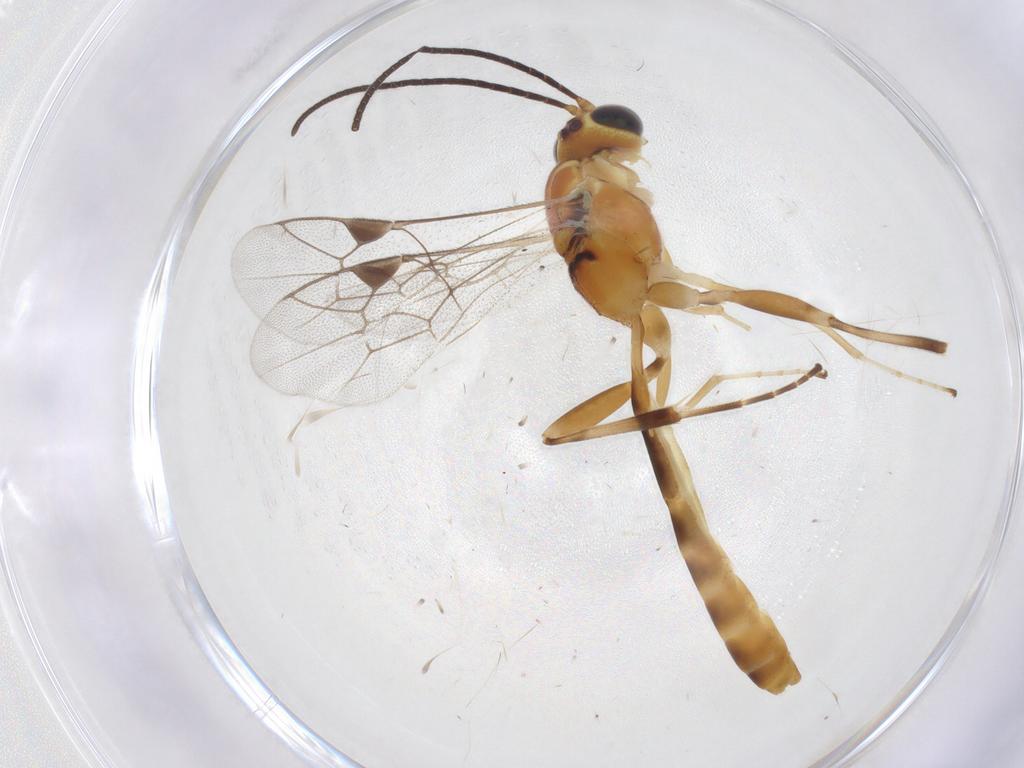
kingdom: Animalia
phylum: Arthropoda
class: Insecta
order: Hymenoptera
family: Ichneumonidae
